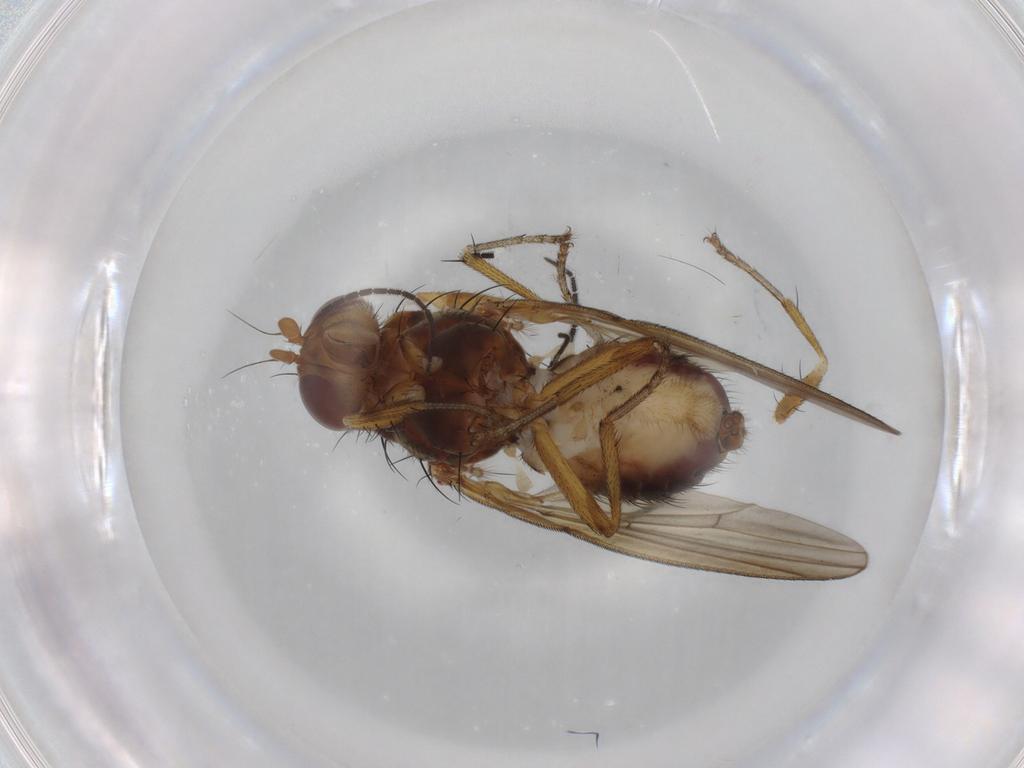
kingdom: Animalia
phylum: Arthropoda
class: Insecta
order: Diptera
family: Lauxaniidae
